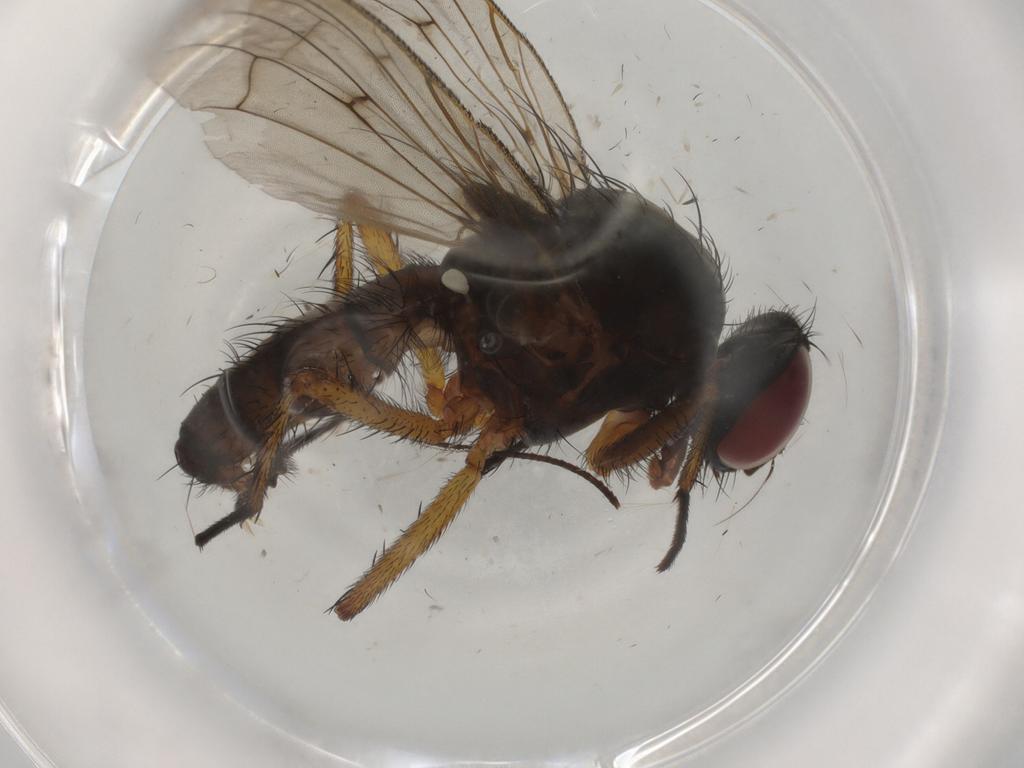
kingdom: Animalia
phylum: Arthropoda
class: Insecta
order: Diptera
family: Anthomyiidae
